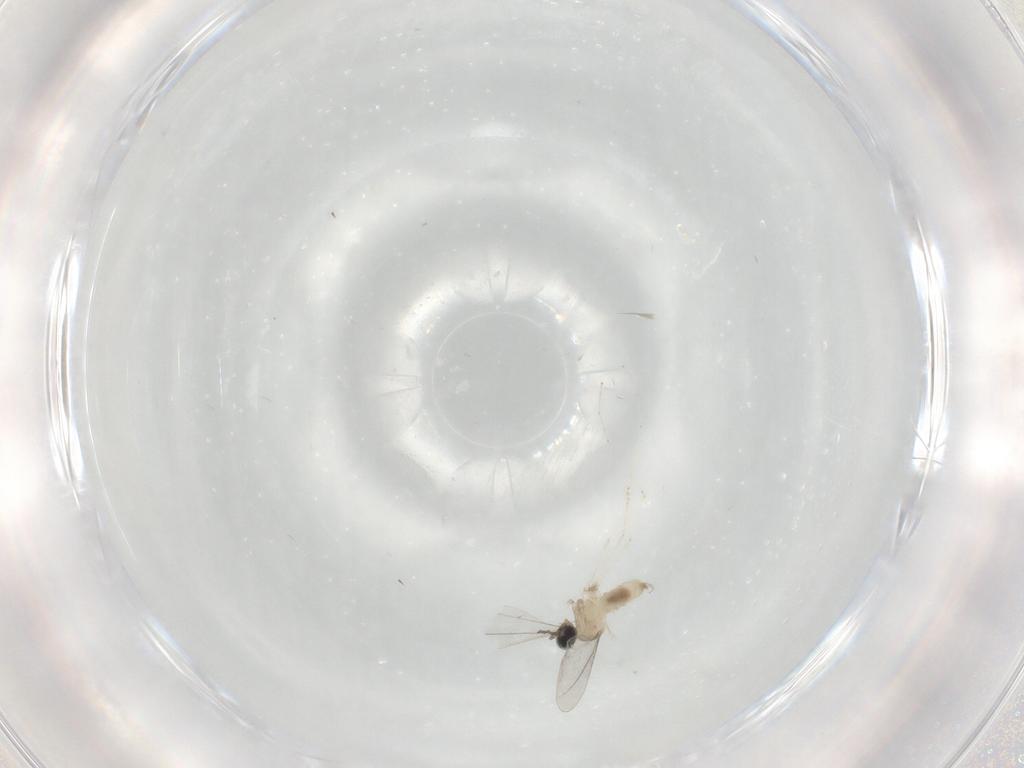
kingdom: Animalia
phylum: Arthropoda
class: Insecta
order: Diptera
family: Cecidomyiidae
